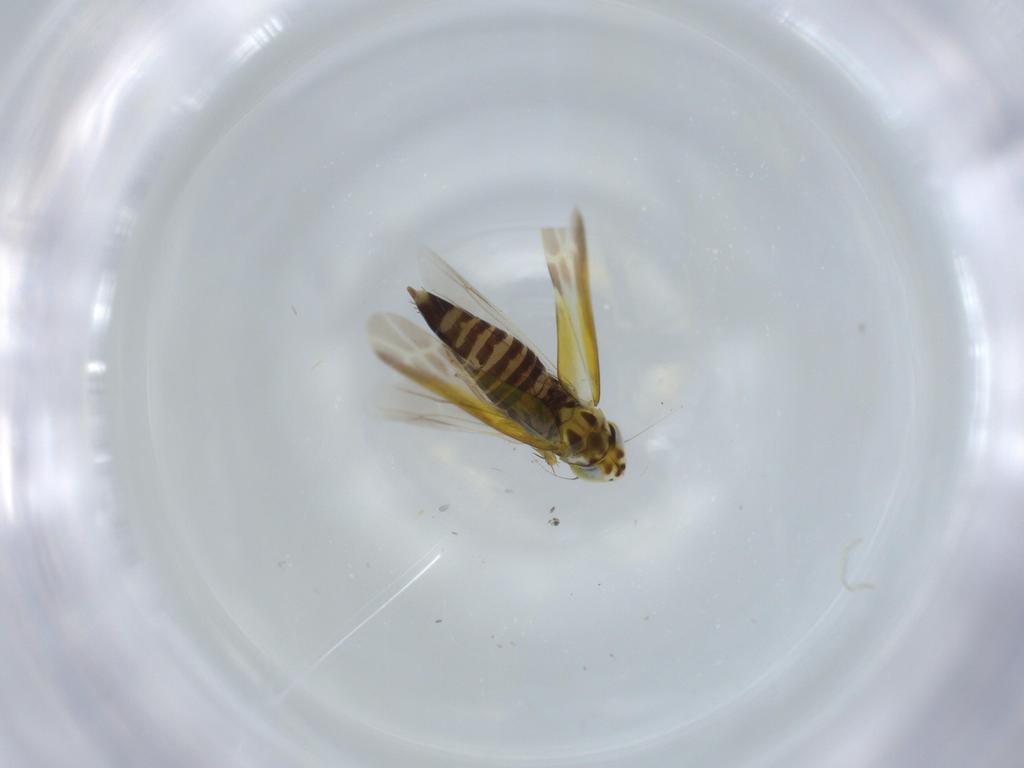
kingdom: Animalia
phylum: Arthropoda
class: Insecta
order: Hemiptera
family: Cicadellidae
